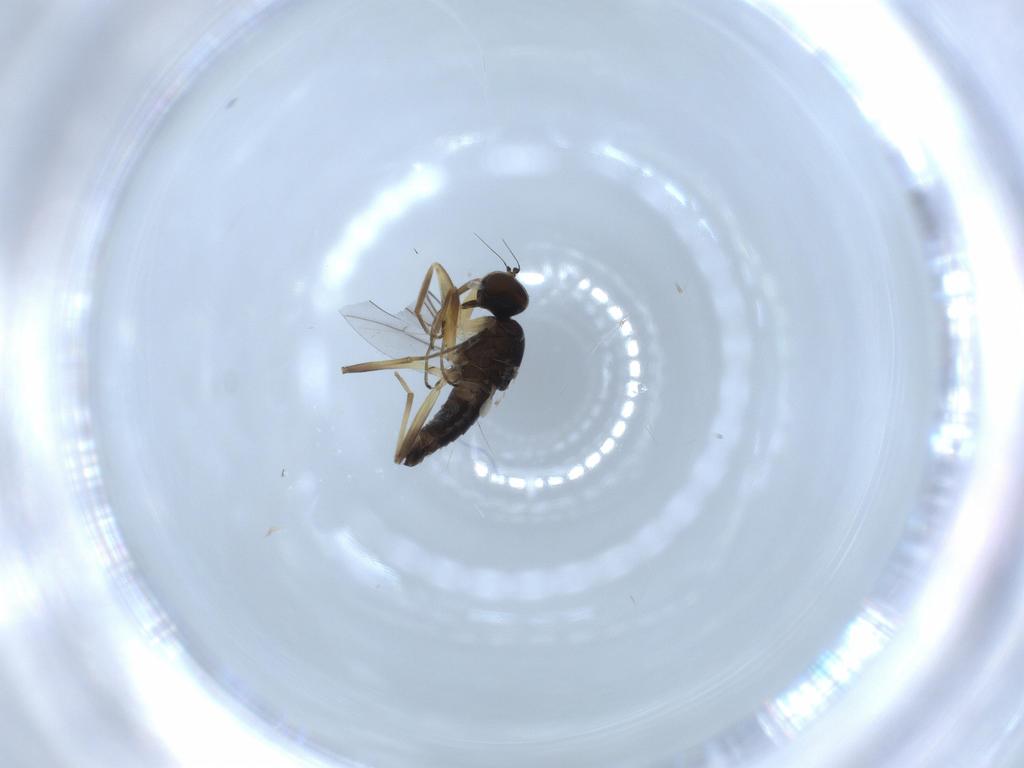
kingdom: Animalia
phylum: Arthropoda
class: Insecta
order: Diptera
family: Hybotidae
